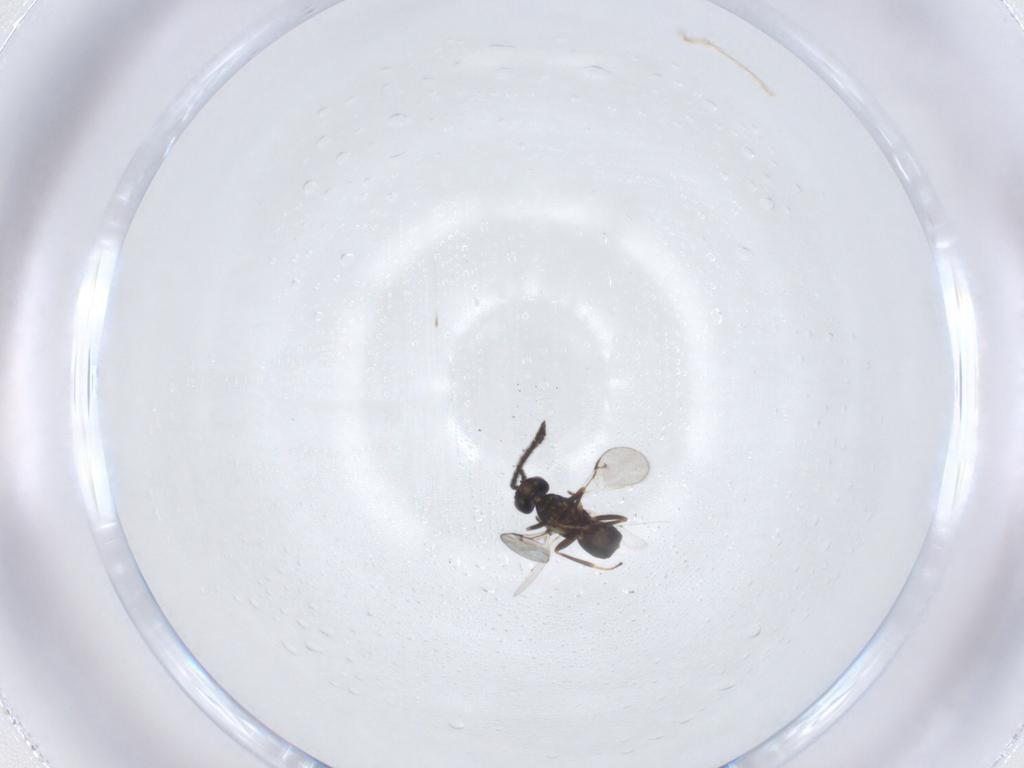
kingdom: Animalia
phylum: Arthropoda
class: Insecta
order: Hymenoptera
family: Encyrtidae
